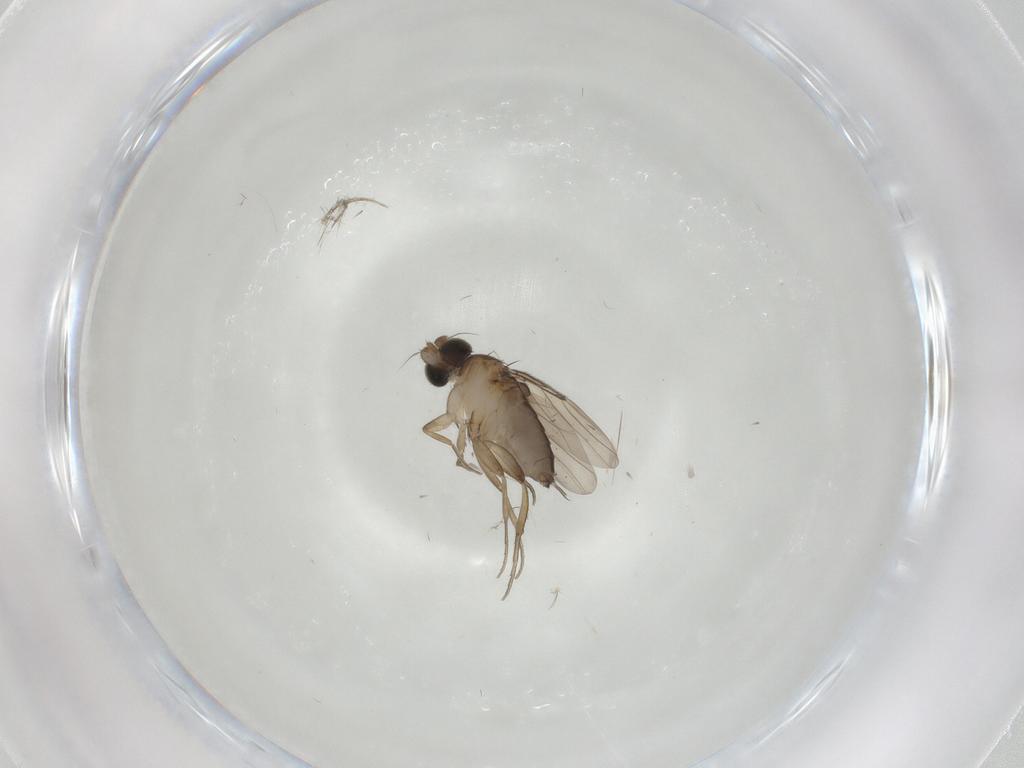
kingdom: Animalia
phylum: Arthropoda
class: Insecta
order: Diptera
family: Phoridae
